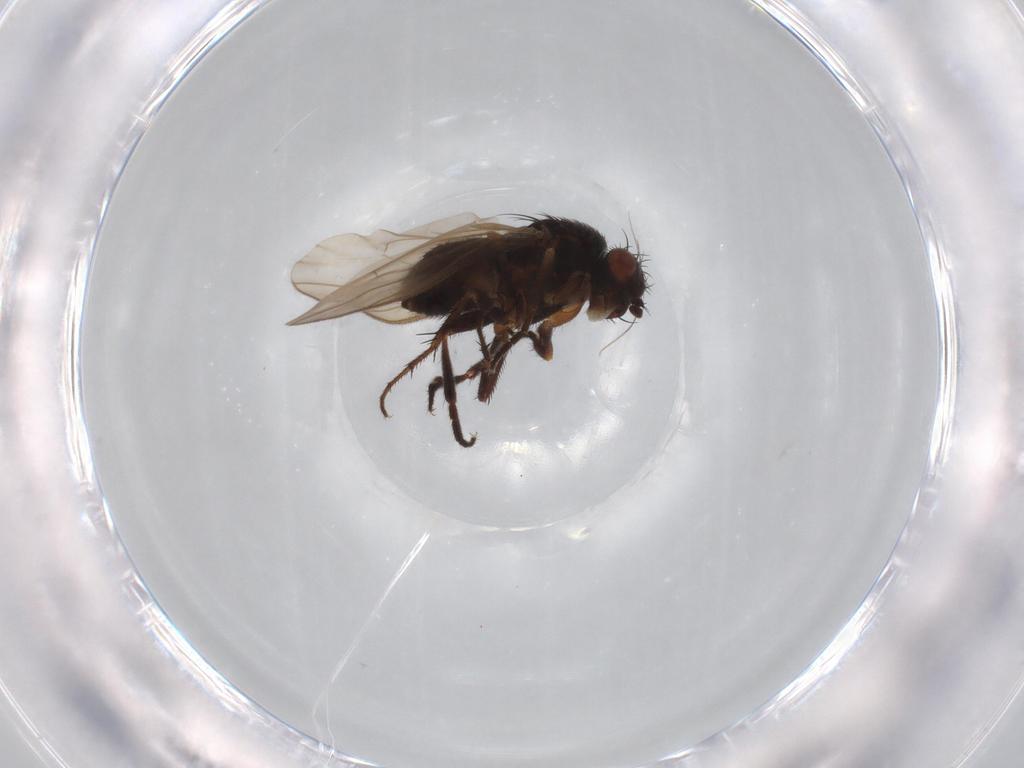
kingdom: Animalia
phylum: Arthropoda
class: Insecta
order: Diptera
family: Sphaeroceridae
